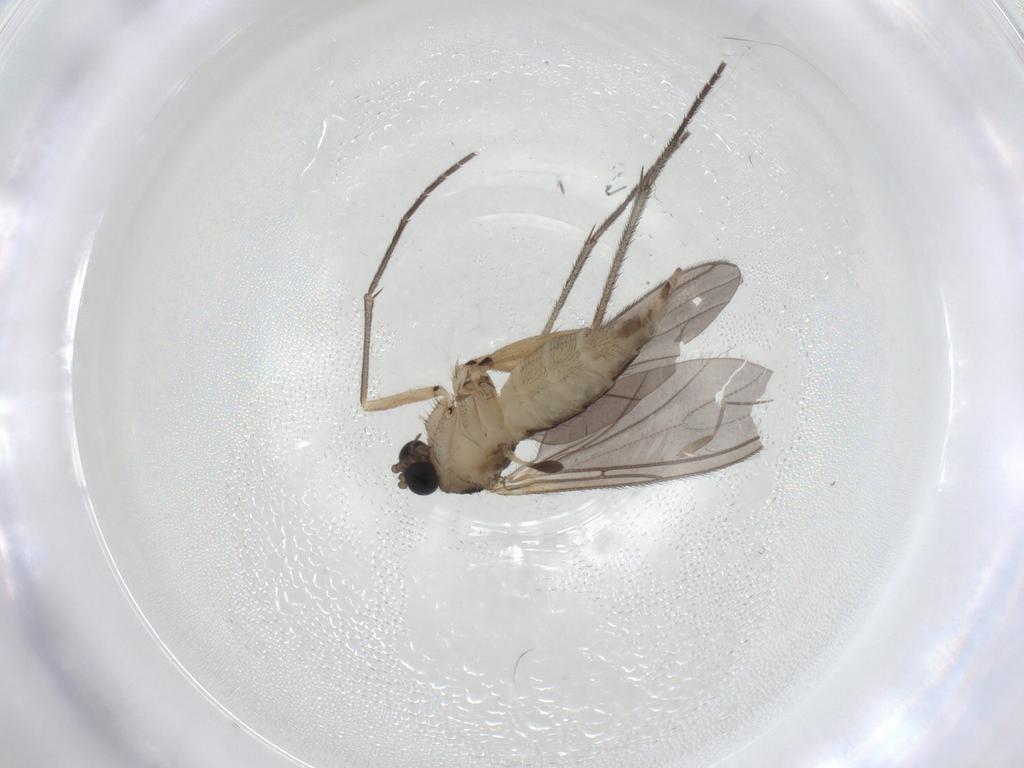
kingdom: Animalia
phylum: Arthropoda
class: Insecta
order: Diptera
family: Sciaridae
